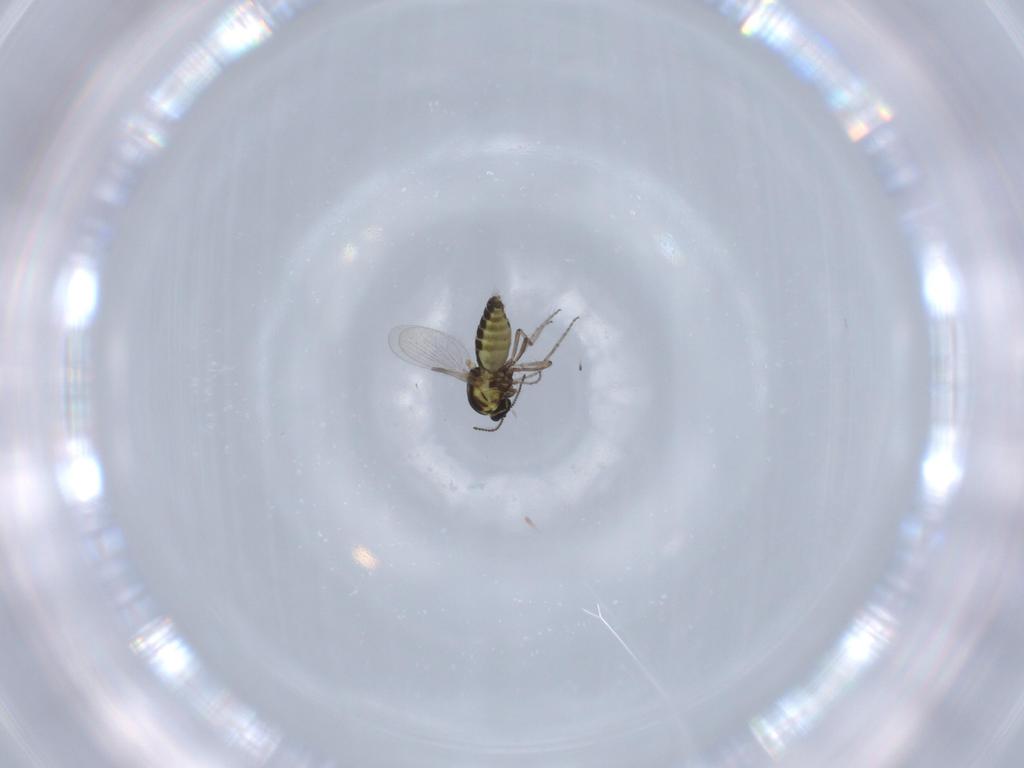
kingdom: Animalia
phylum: Arthropoda
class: Insecta
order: Diptera
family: Ceratopogonidae
